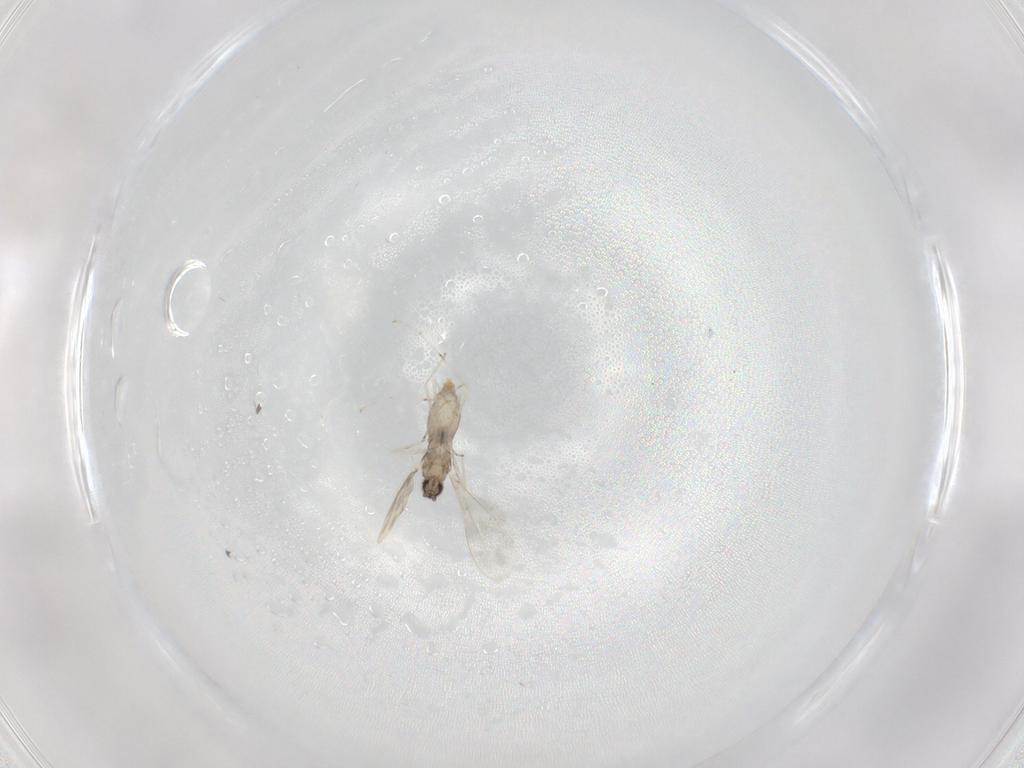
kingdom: Animalia
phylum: Arthropoda
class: Insecta
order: Diptera
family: Cecidomyiidae
